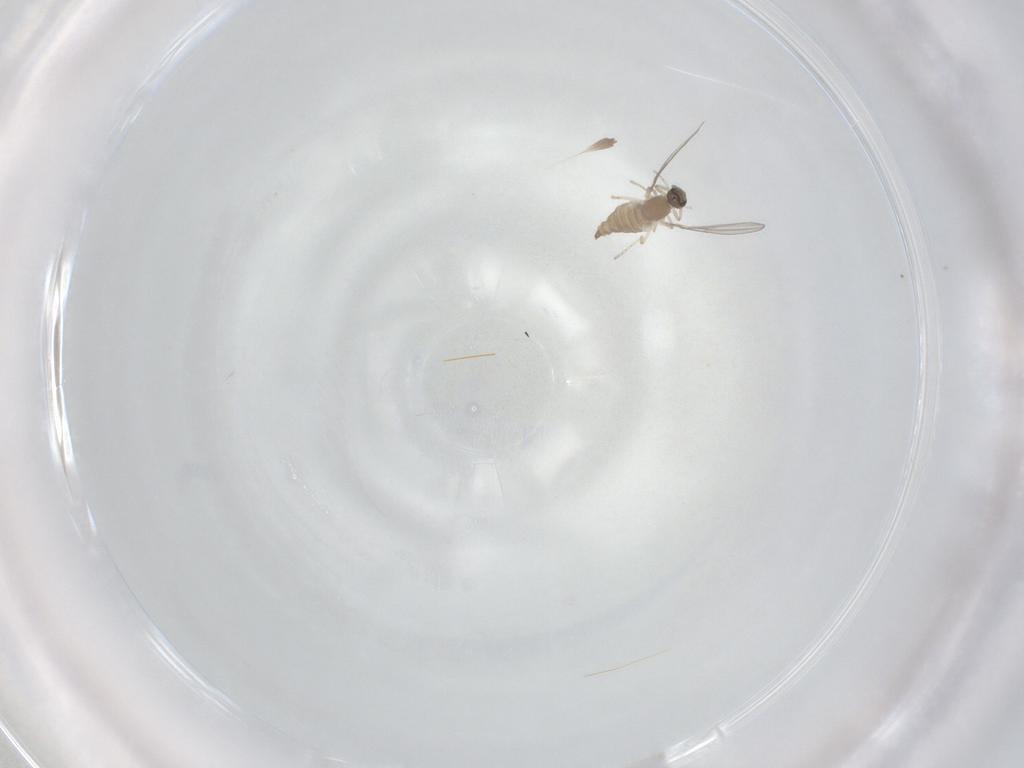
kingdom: Animalia
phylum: Arthropoda
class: Insecta
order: Diptera
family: Cecidomyiidae
